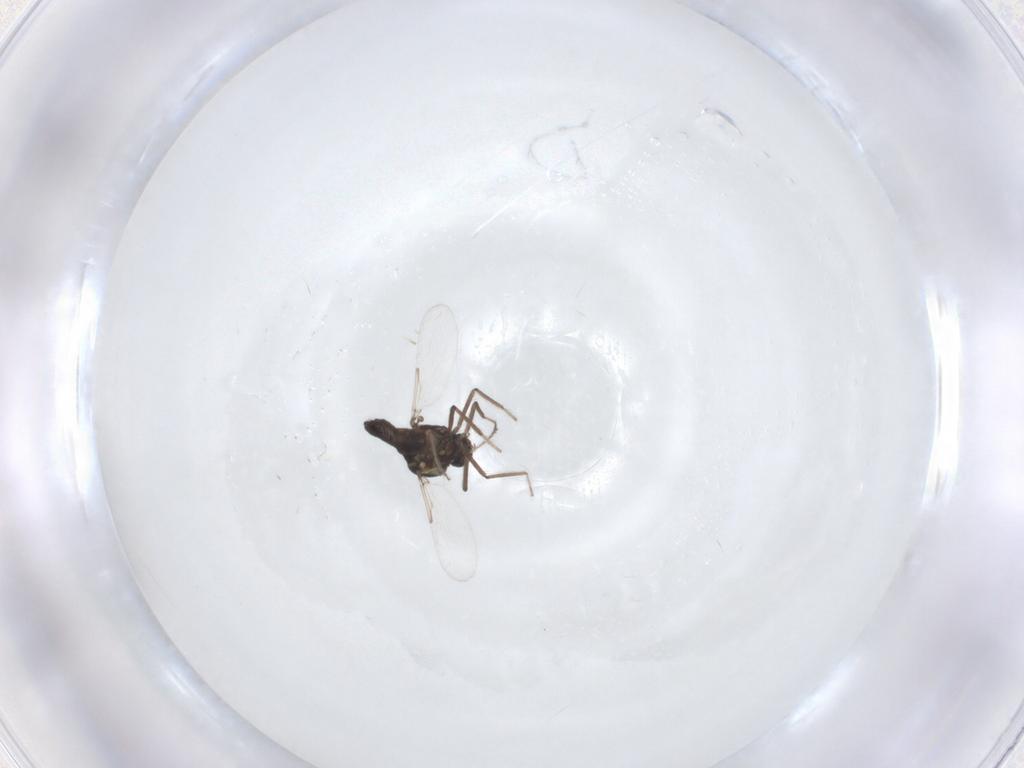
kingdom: Animalia
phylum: Arthropoda
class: Insecta
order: Diptera
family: Ceratopogonidae
